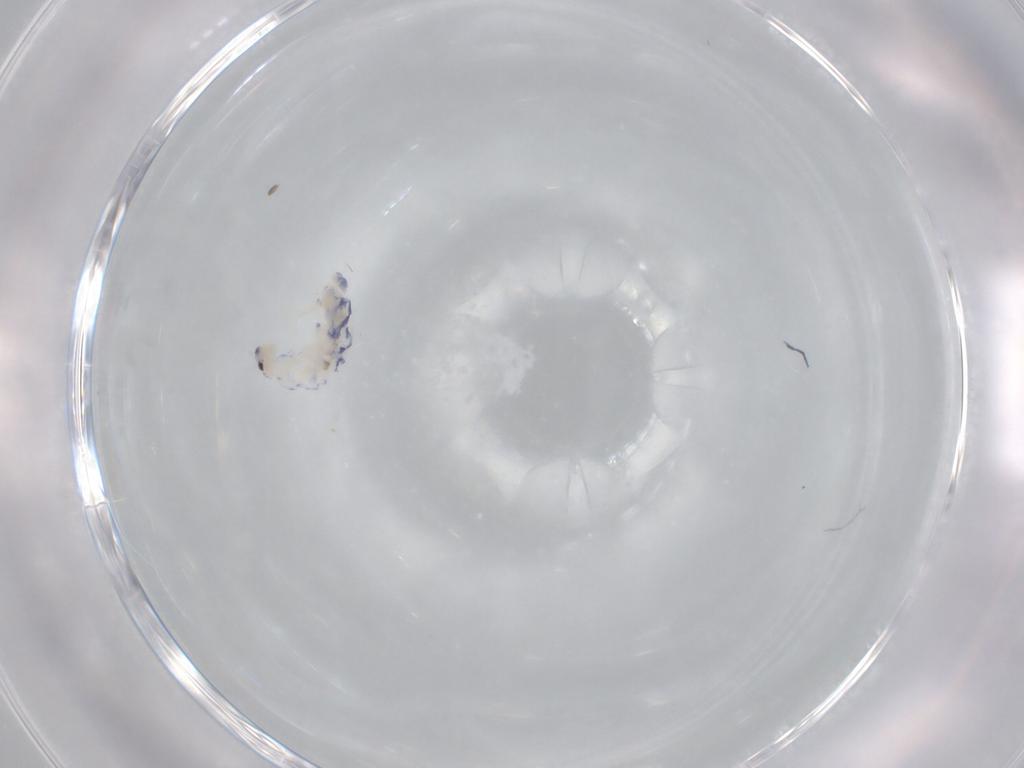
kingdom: Animalia
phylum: Arthropoda
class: Collembola
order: Entomobryomorpha
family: Entomobryidae
